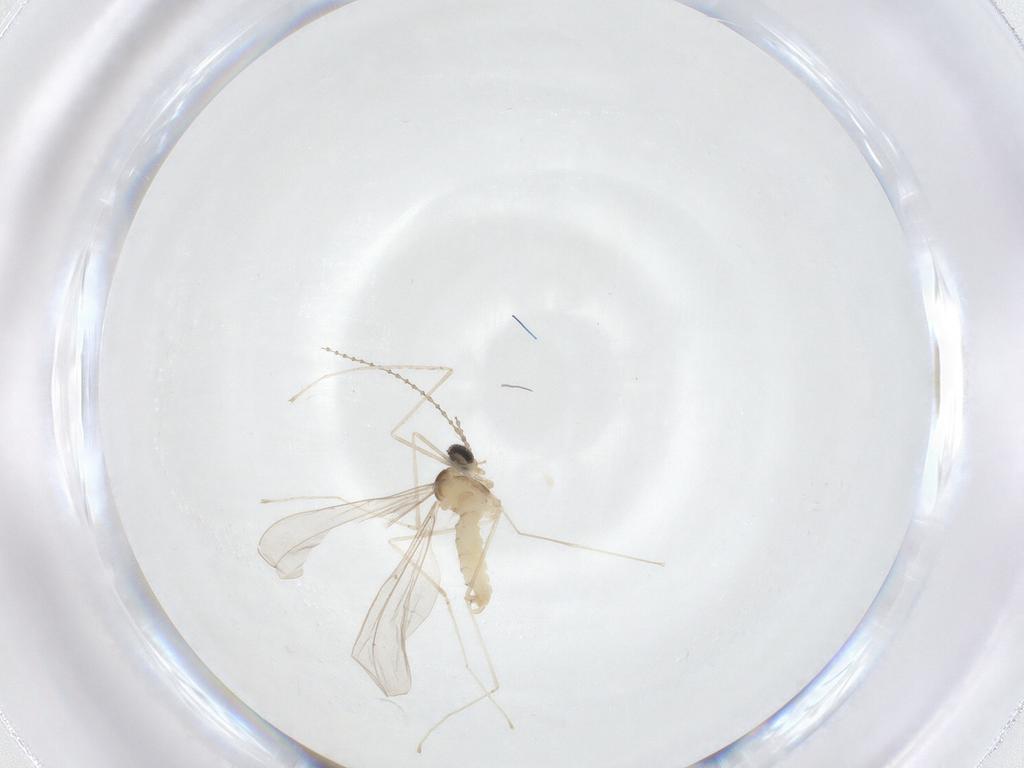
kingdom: Animalia
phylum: Arthropoda
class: Insecta
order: Diptera
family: Cecidomyiidae
